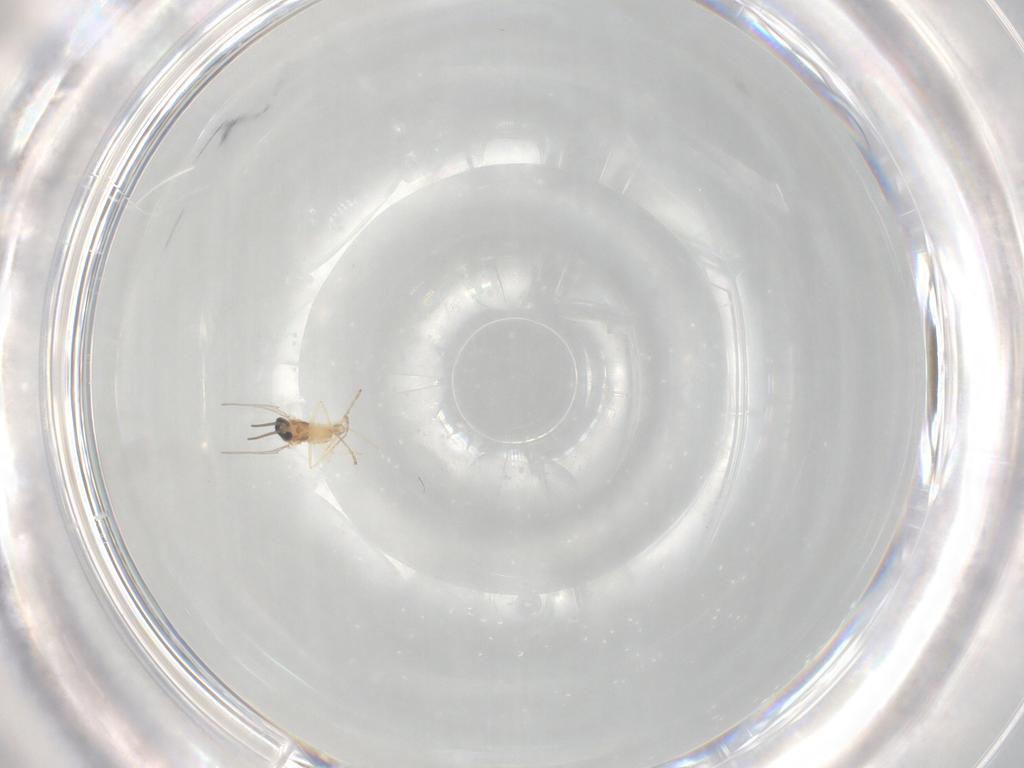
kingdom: Animalia
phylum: Arthropoda
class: Insecta
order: Diptera
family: Cecidomyiidae
